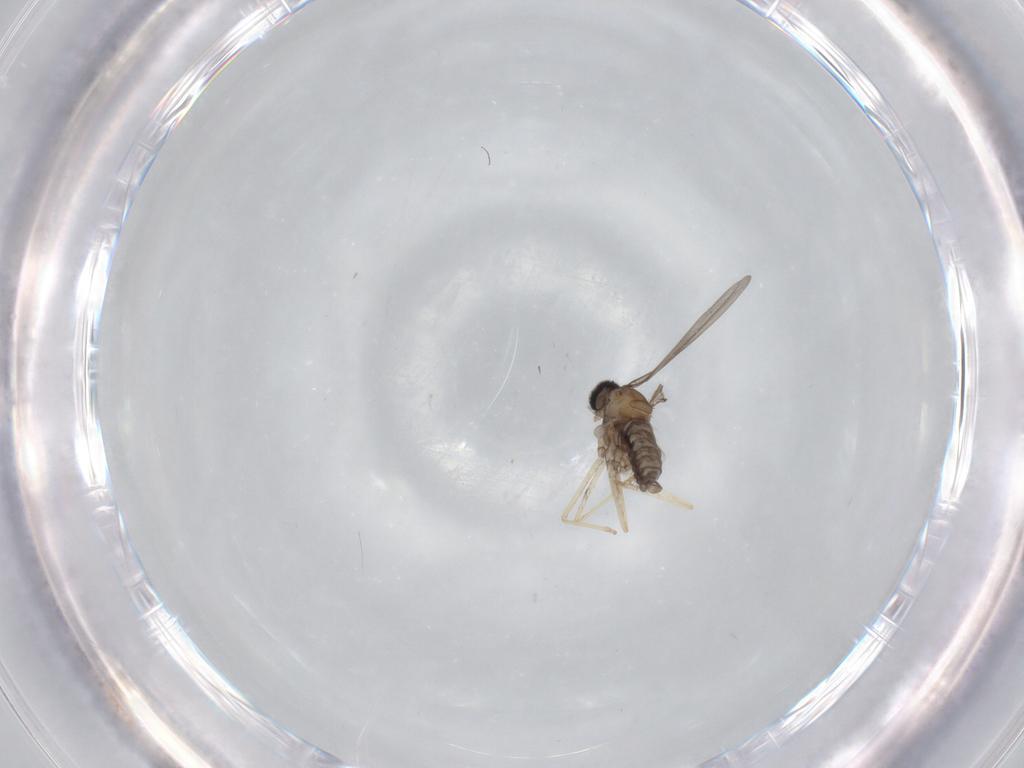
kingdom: Animalia
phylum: Arthropoda
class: Insecta
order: Diptera
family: Cecidomyiidae
